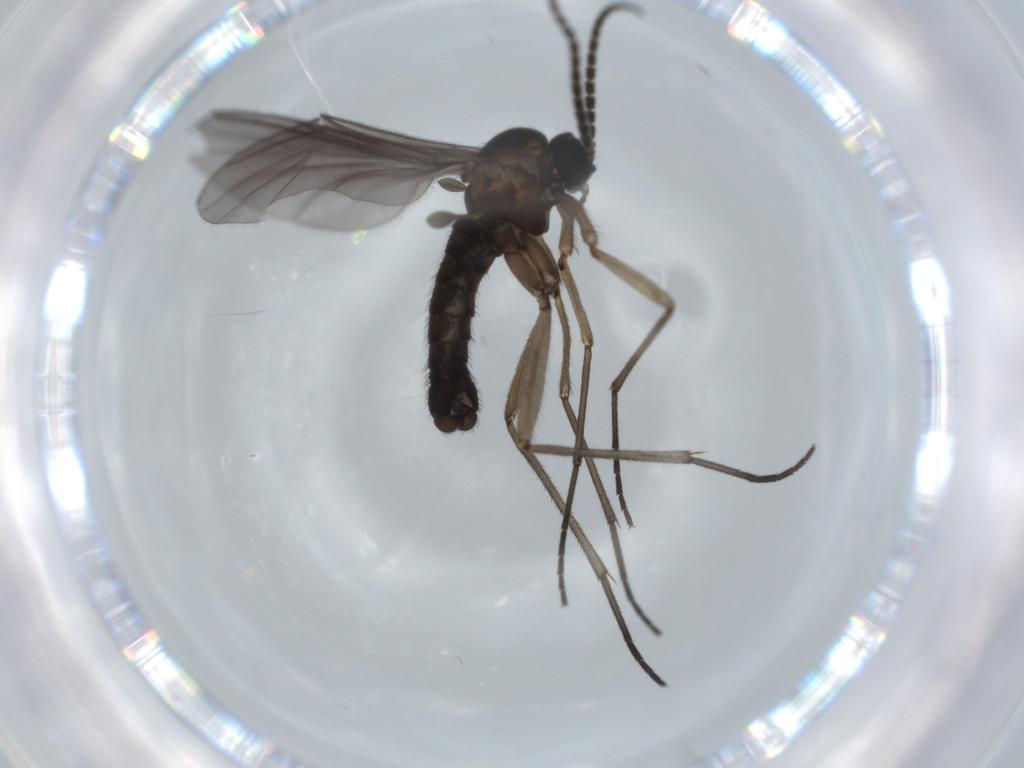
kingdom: Animalia
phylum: Arthropoda
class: Insecta
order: Diptera
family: Sciaridae
